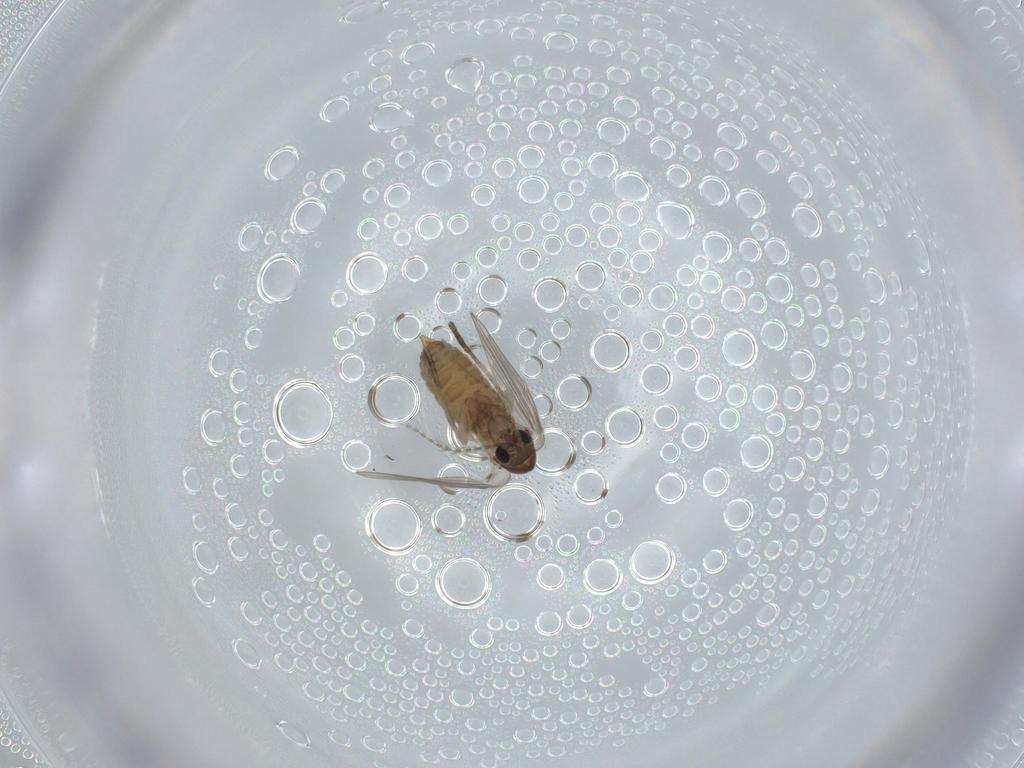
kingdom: Animalia
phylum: Arthropoda
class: Insecta
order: Diptera
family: Psychodidae
